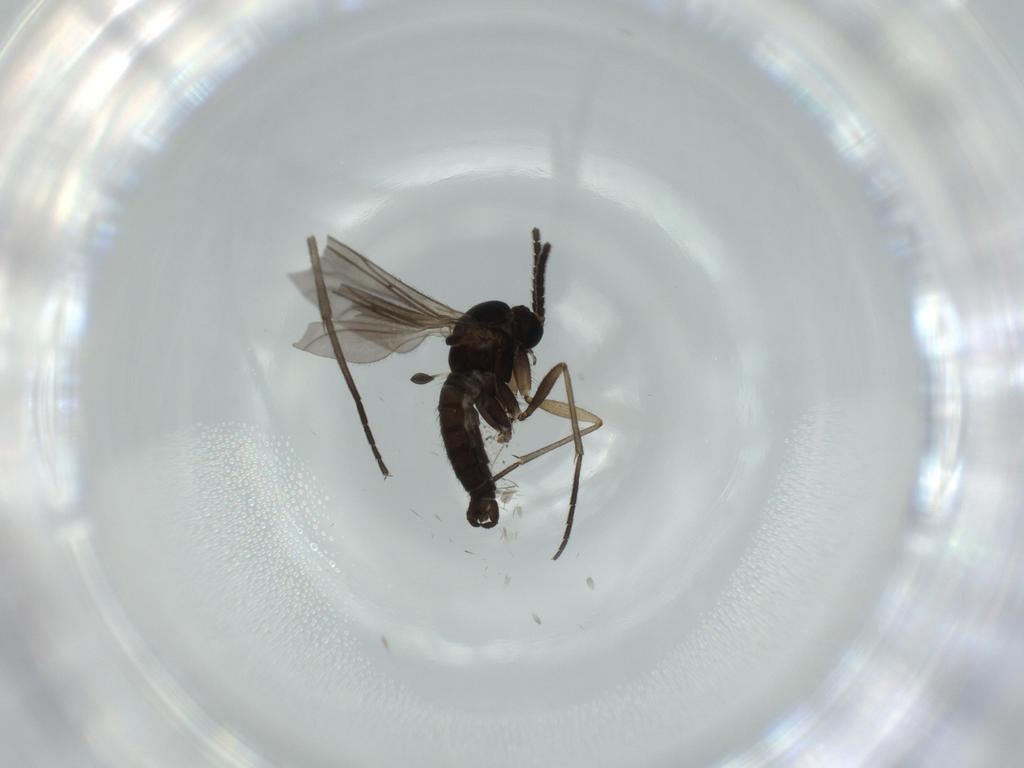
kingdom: Animalia
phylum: Arthropoda
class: Insecta
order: Diptera
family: Sciaridae
